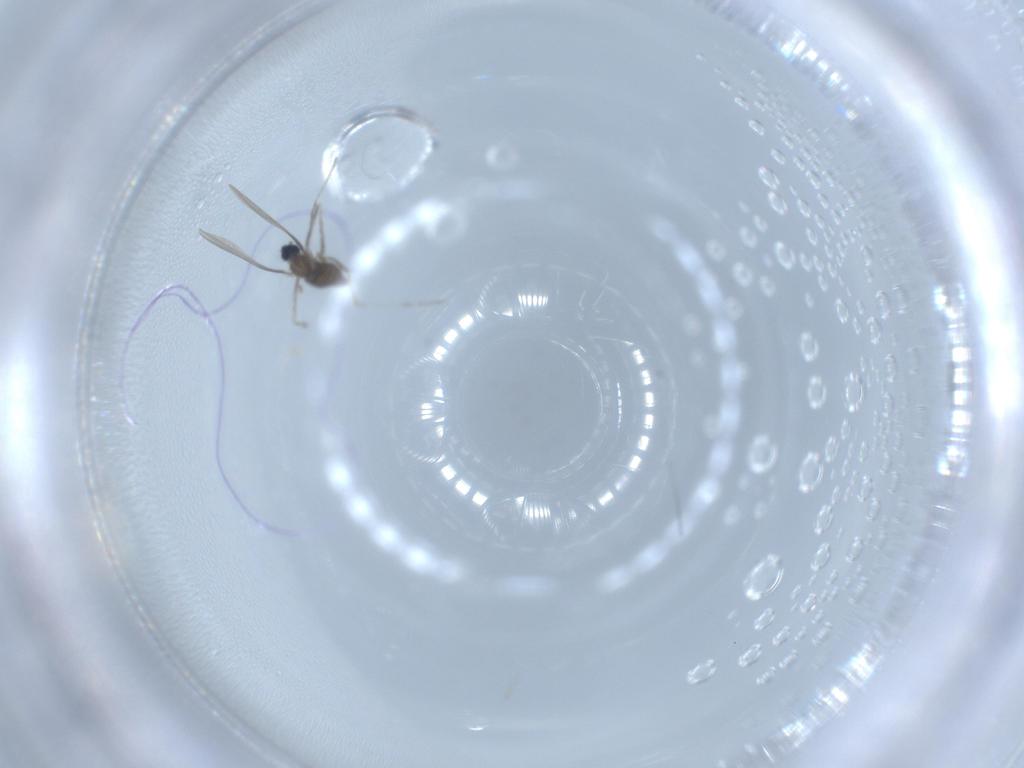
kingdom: Animalia
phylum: Arthropoda
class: Insecta
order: Diptera
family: Cecidomyiidae
